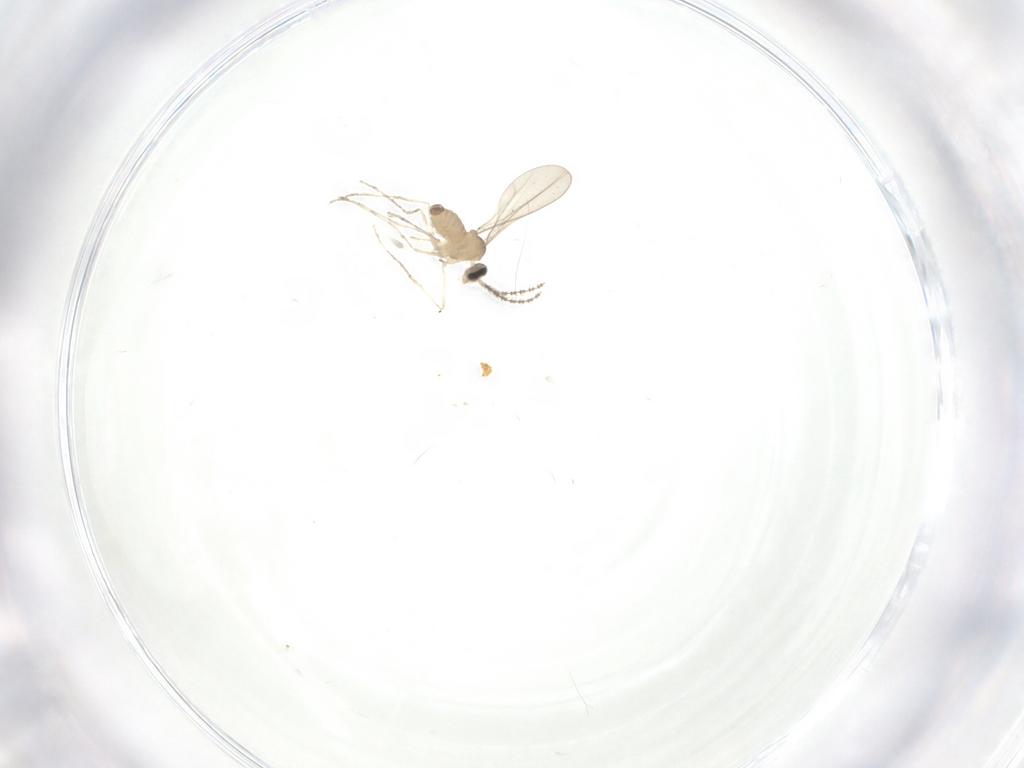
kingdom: Animalia
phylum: Arthropoda
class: Insecta
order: Diptera
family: Cecidomyiidae
